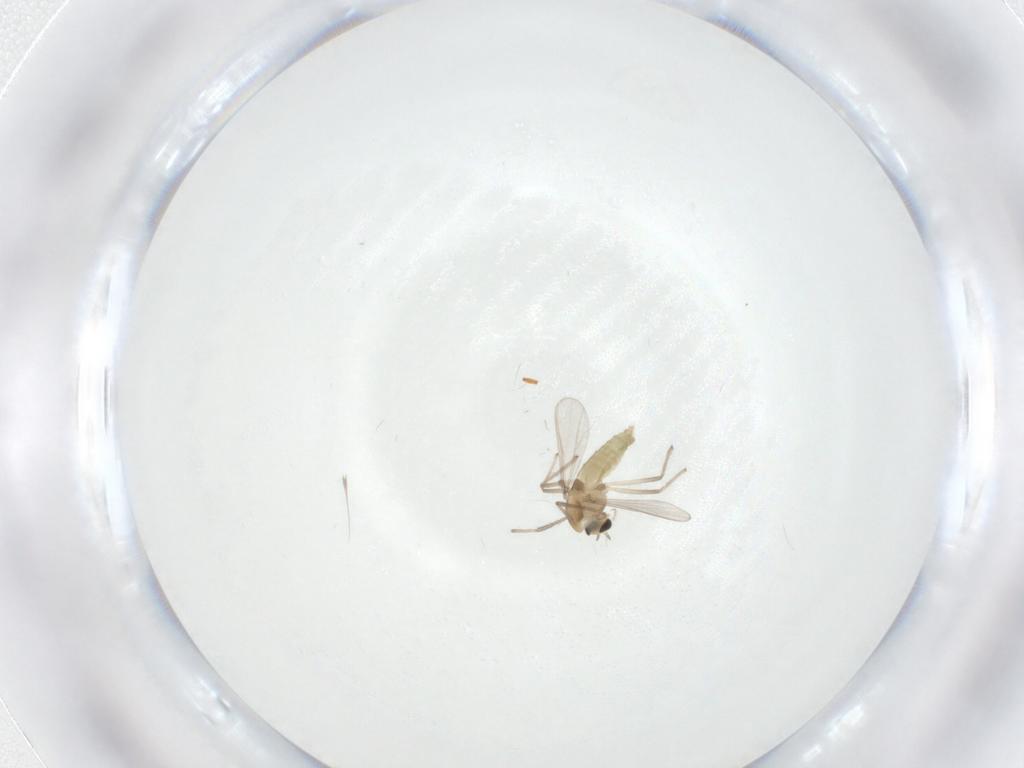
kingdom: Animalia
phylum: Arthropoda
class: Insecta
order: Diptera
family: Chironomidae
